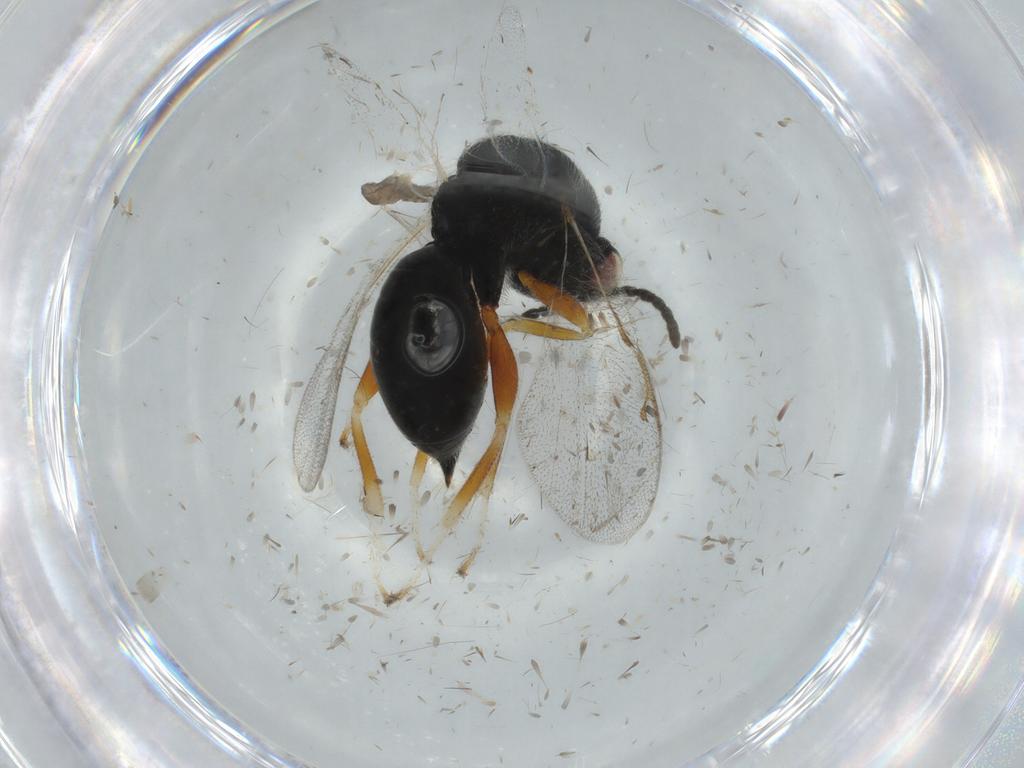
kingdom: Animalia
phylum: Arthropoda
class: Insecta
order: Hymenoptera
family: Eurytomidae
